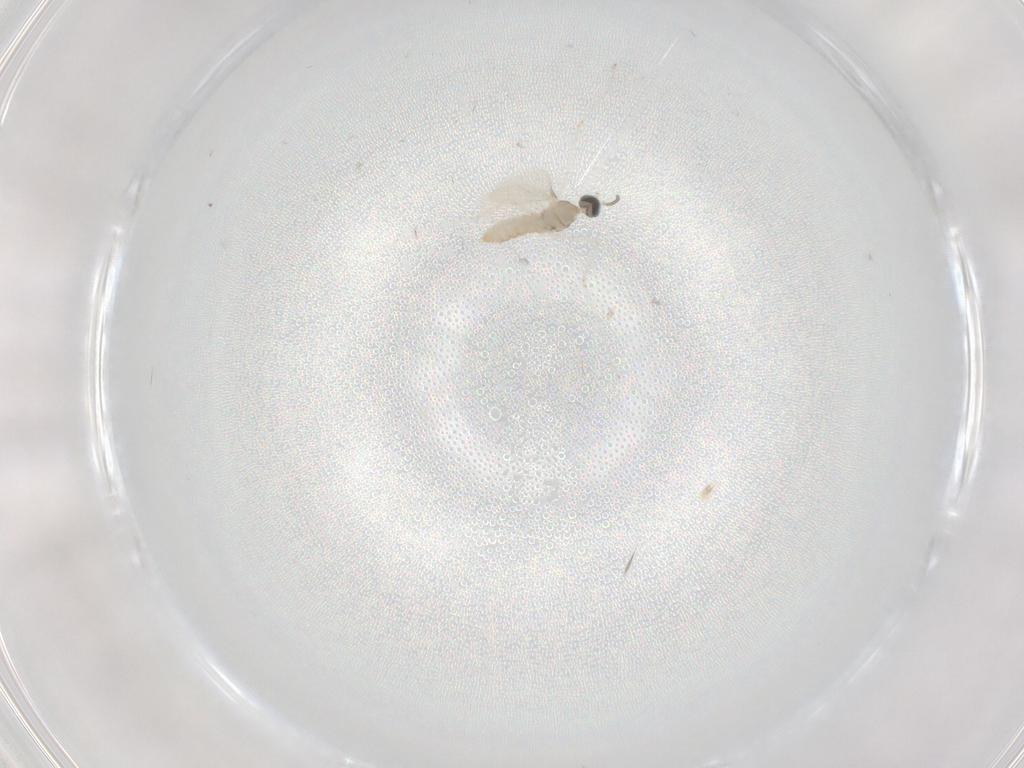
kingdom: Animalia
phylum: Arthropoda
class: Insecta
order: Diptera
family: Cecidomyiidae
